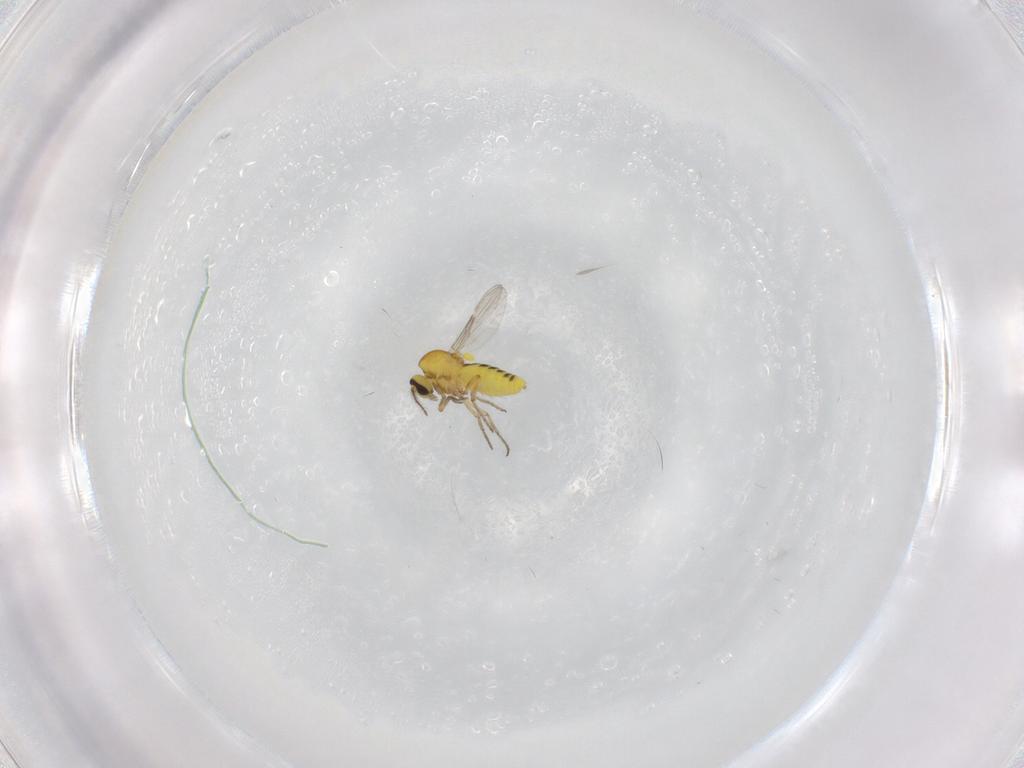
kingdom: Animalia
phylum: Arthropoda
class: Insecta
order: Diptera
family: Ceratopogonidae
